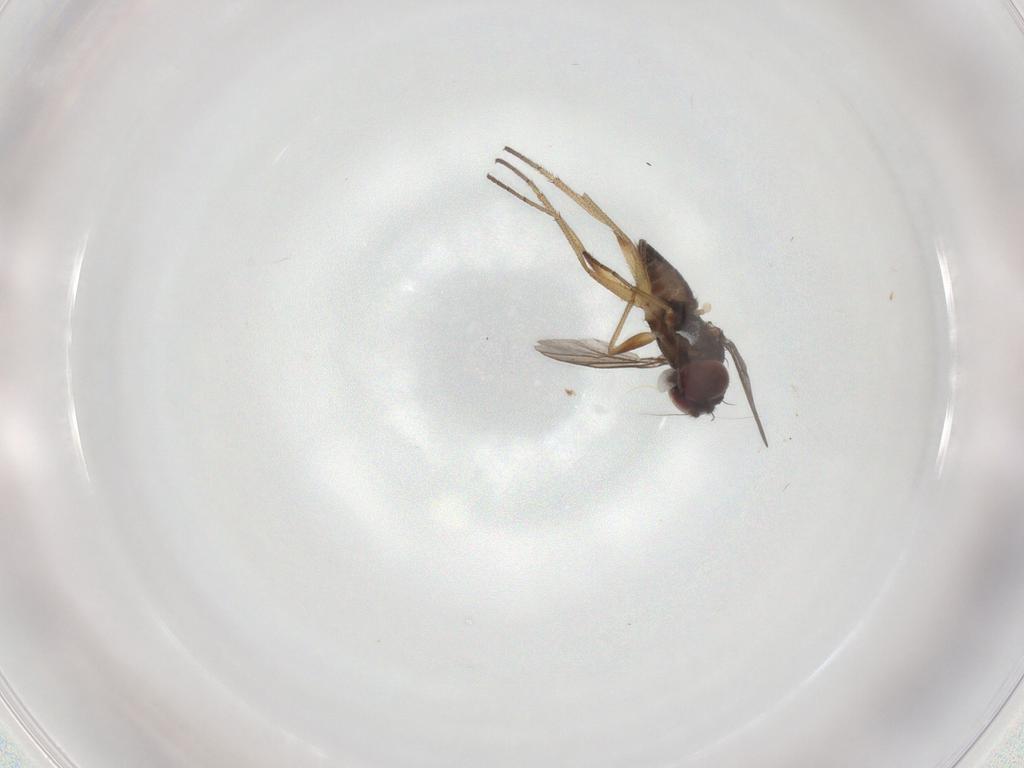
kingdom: Animalia
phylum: Arthropoda
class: Insecta
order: Diptera
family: Dolichopodidae
